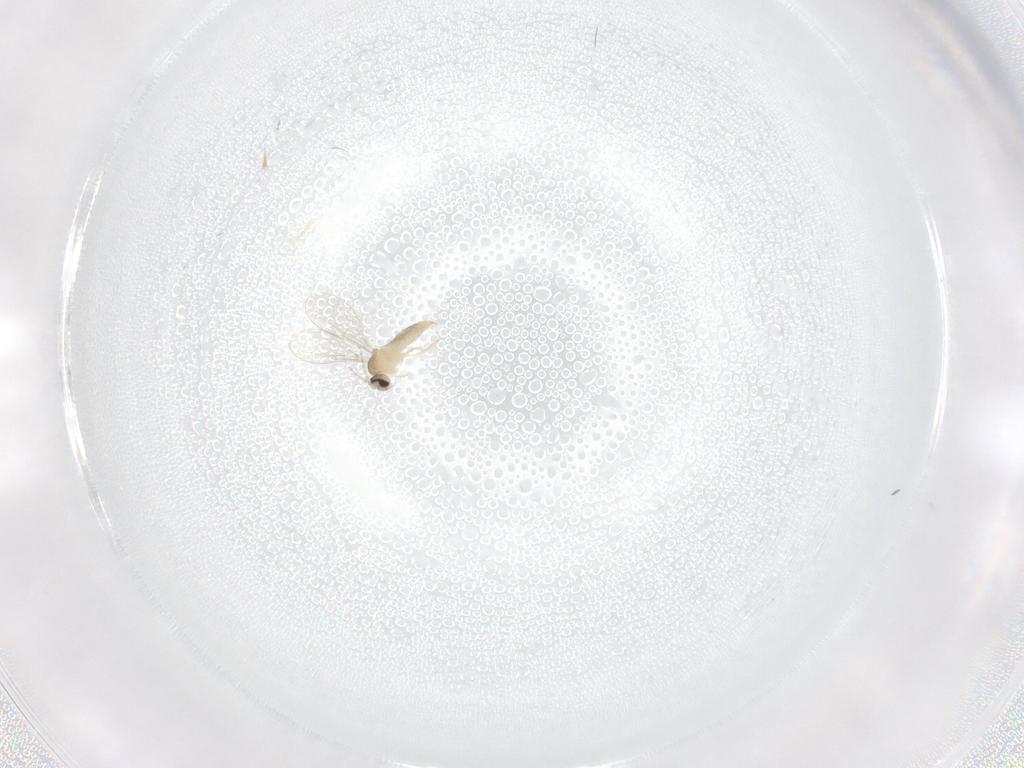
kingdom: Animalia
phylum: Arthropoda
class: Insecta
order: Diptera
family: Cecidomyiidae
